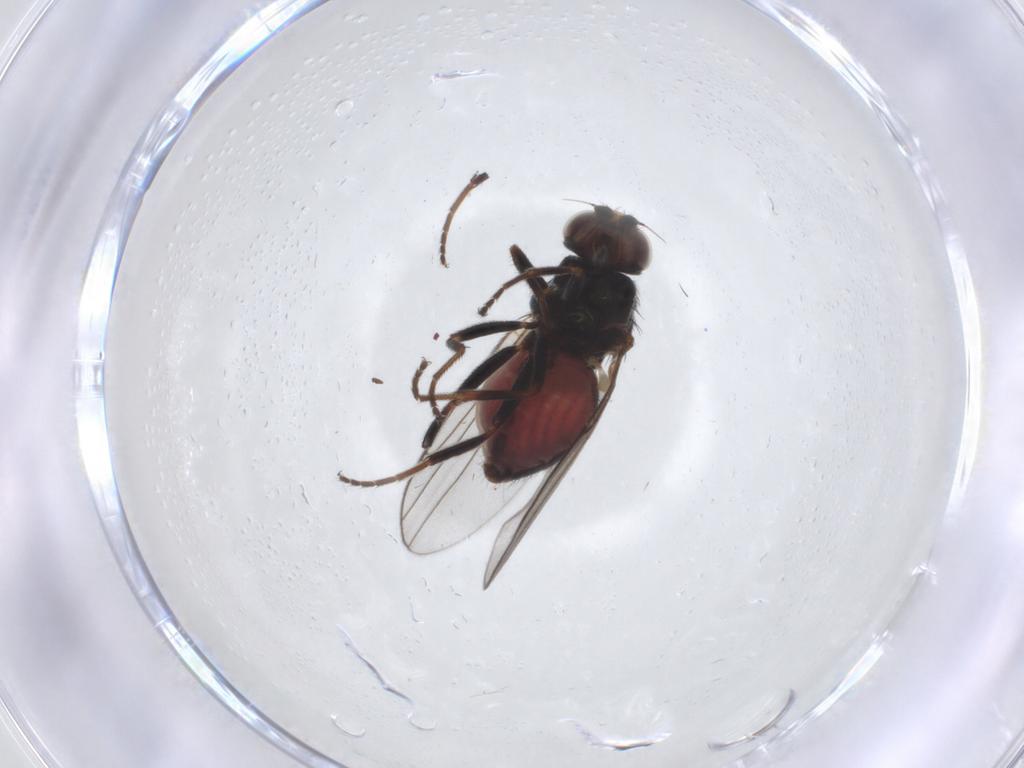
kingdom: Animalia
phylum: Arthropoda
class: Insecta
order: Diptera
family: Chloropidae
